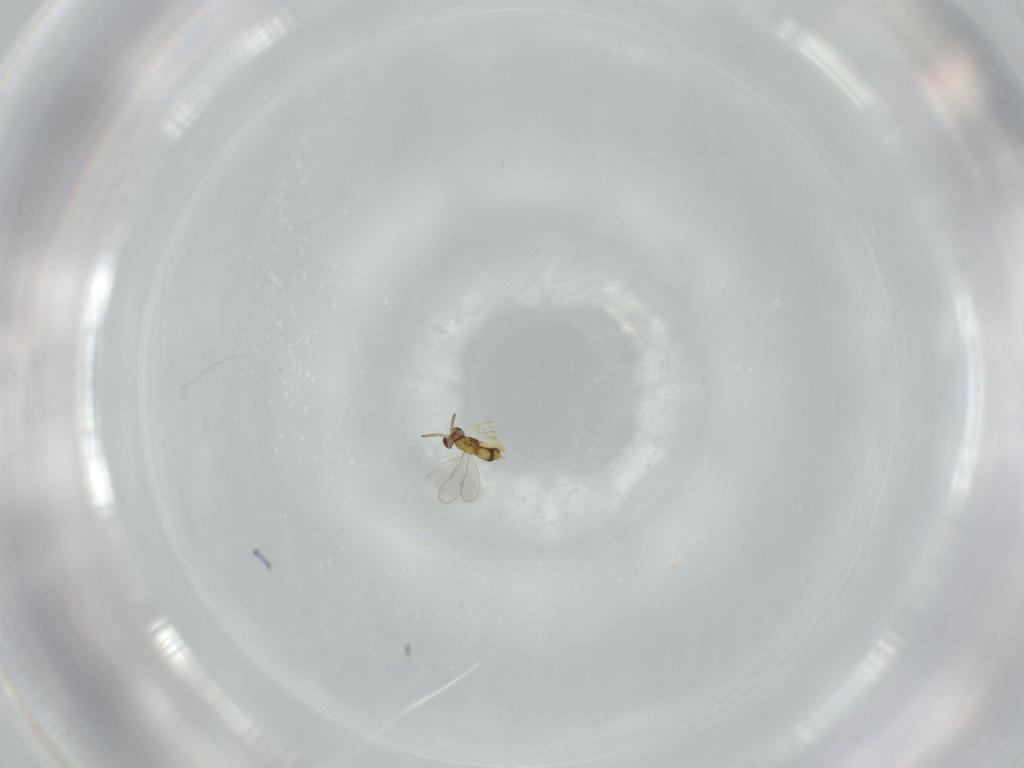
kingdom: Animalia
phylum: Arthropoda
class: Insecta
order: Hymenoptera
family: Aphelinidae
